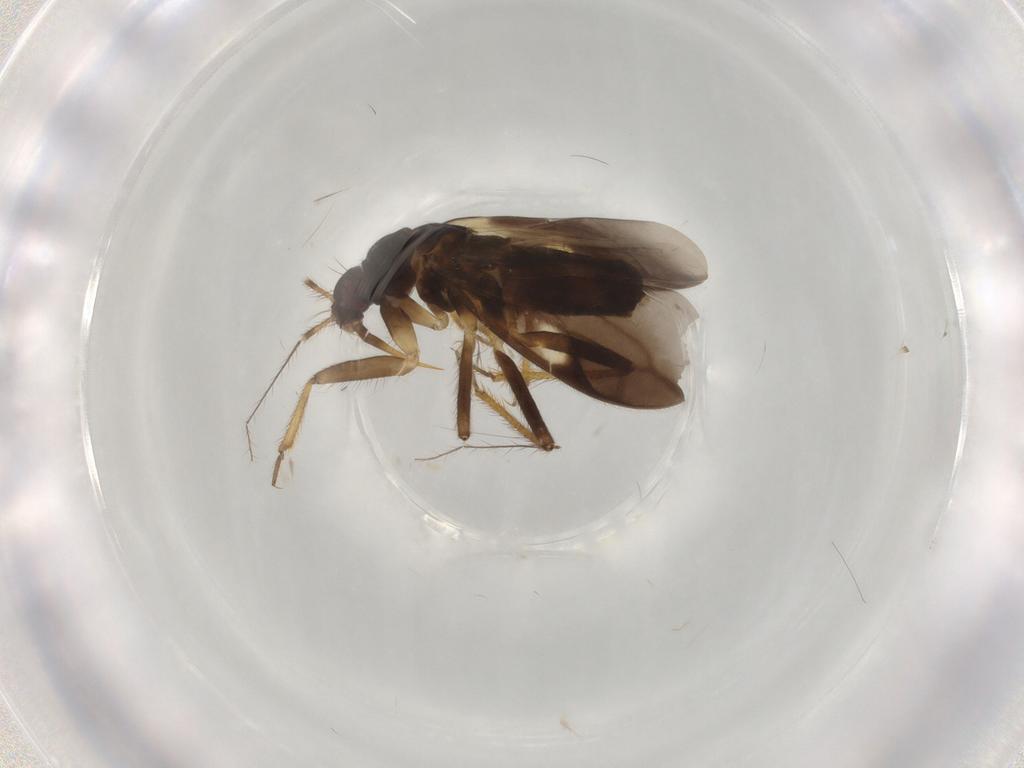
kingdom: Animalia
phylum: Arthropoda
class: Insecta
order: Hemiptera
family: Ceratocombidae
